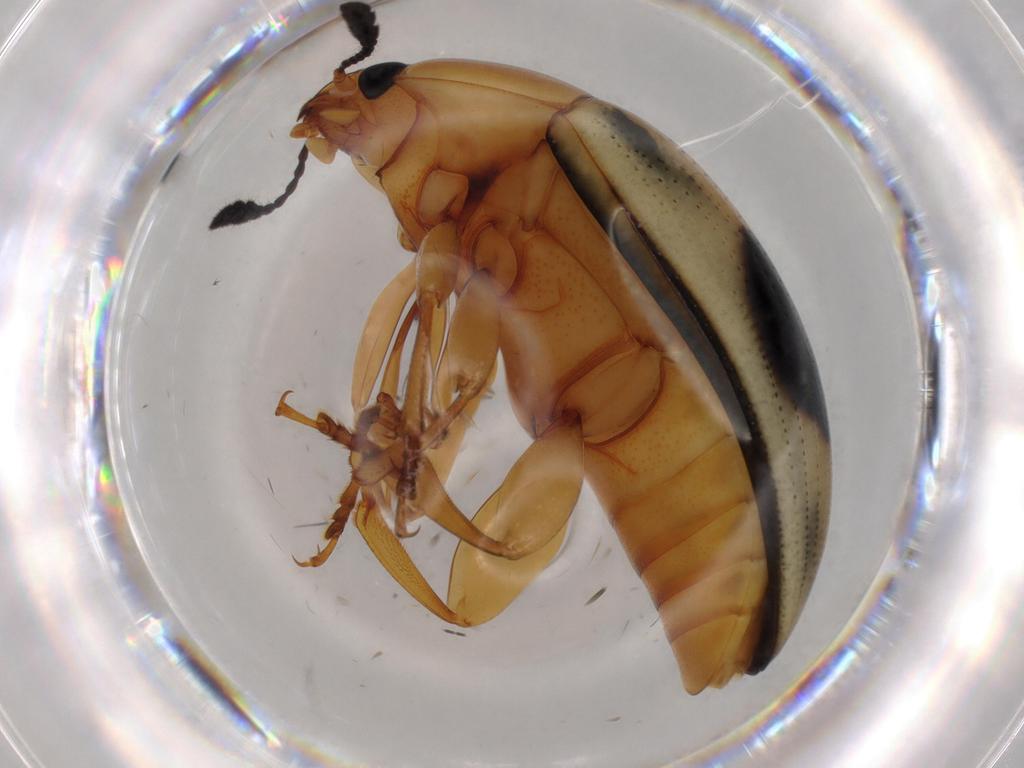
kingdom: Animalia
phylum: Arthropoda
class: Insecta
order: Coleoptera
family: Erotylidae
